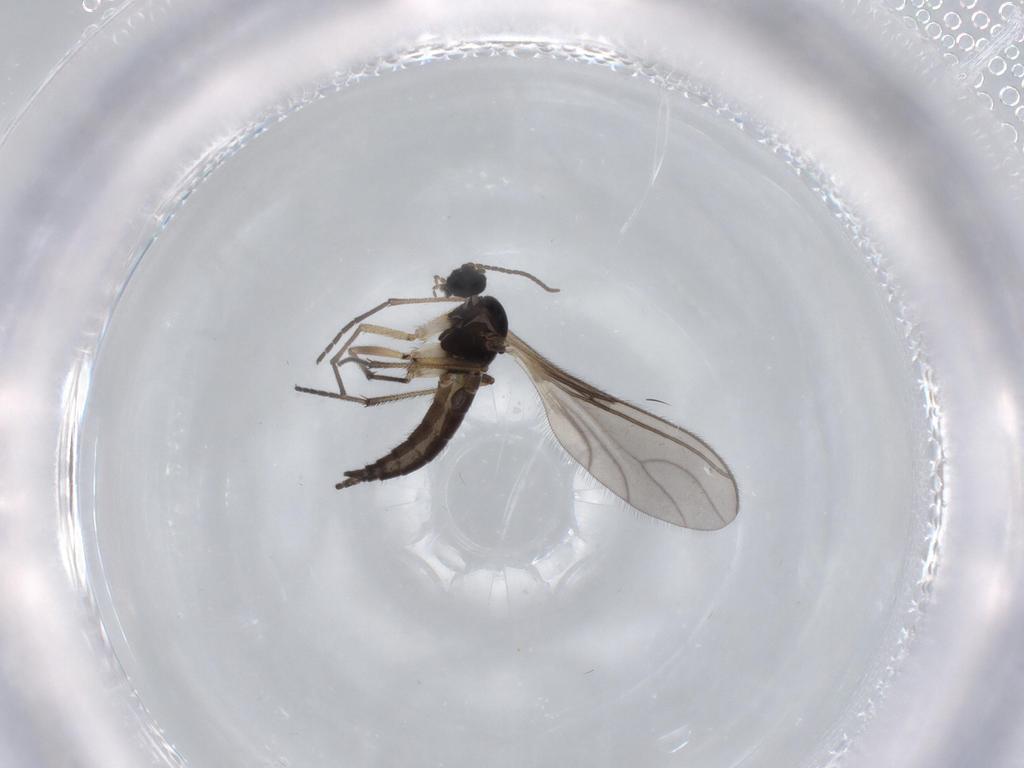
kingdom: Animalia
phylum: Arthropoda
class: Insecta
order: Diptera
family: Sciaridae
